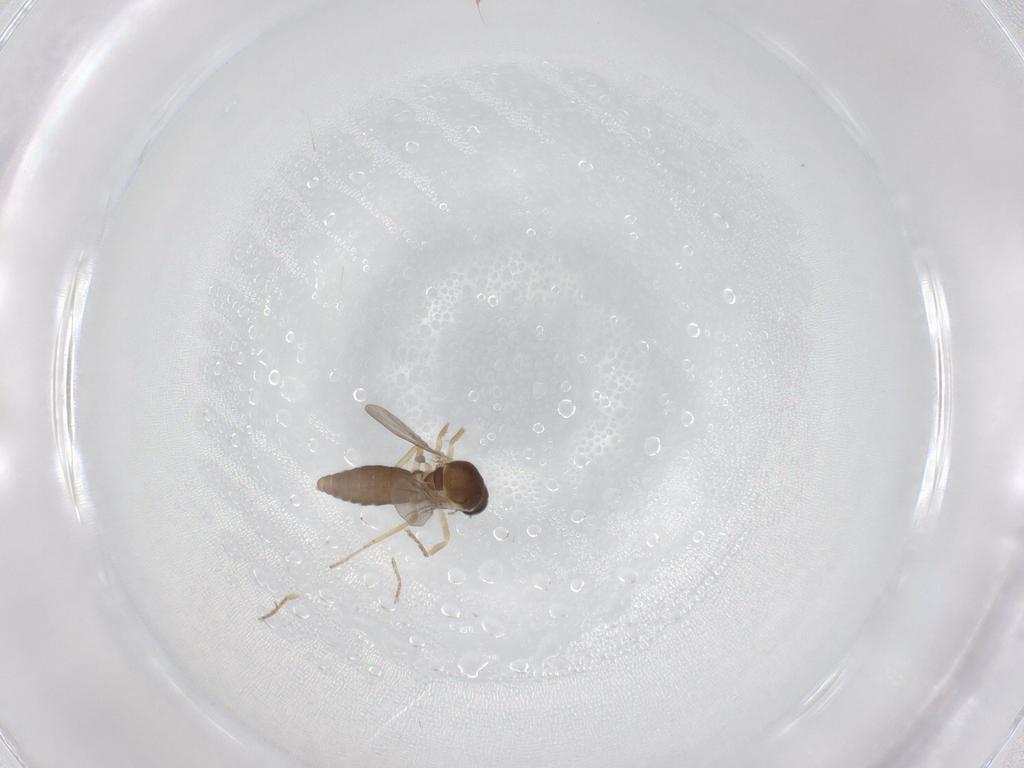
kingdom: Animalia
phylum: Arthropoda
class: Insecta
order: Diptera
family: Ceratopogonidae
